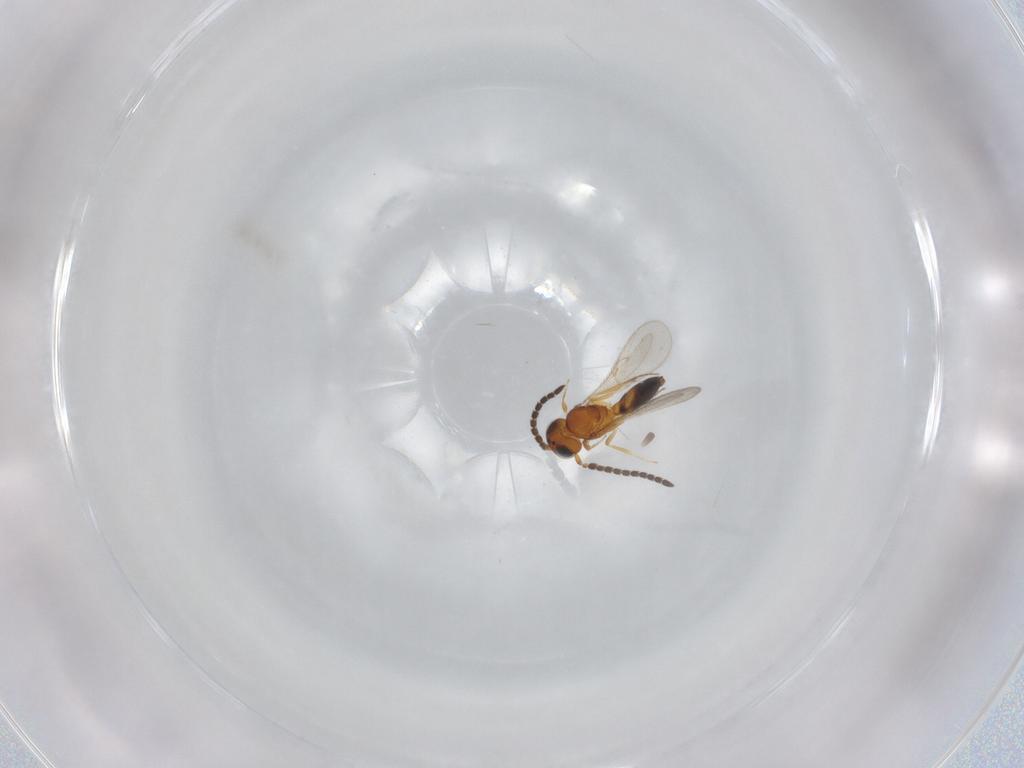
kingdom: Animalia
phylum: Arthropoda
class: Insecta
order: Hymenoptera
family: Scelionidae
